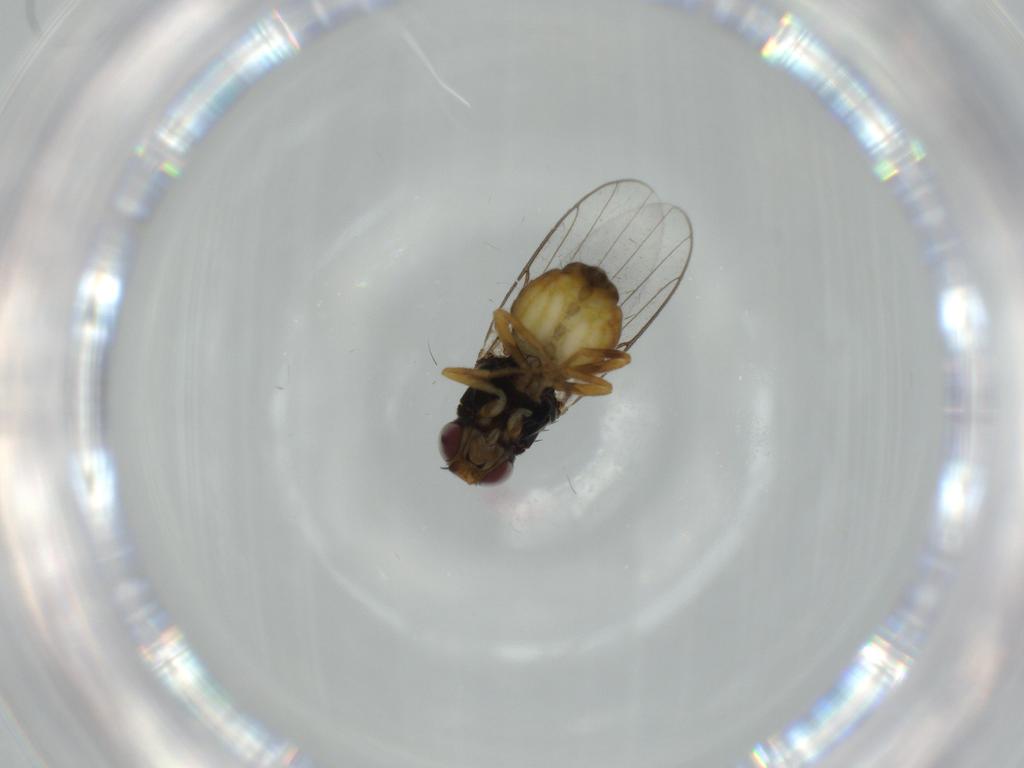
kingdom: Animalia
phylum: Arthropoda
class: Insecta
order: Diptera
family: Chloropidae
